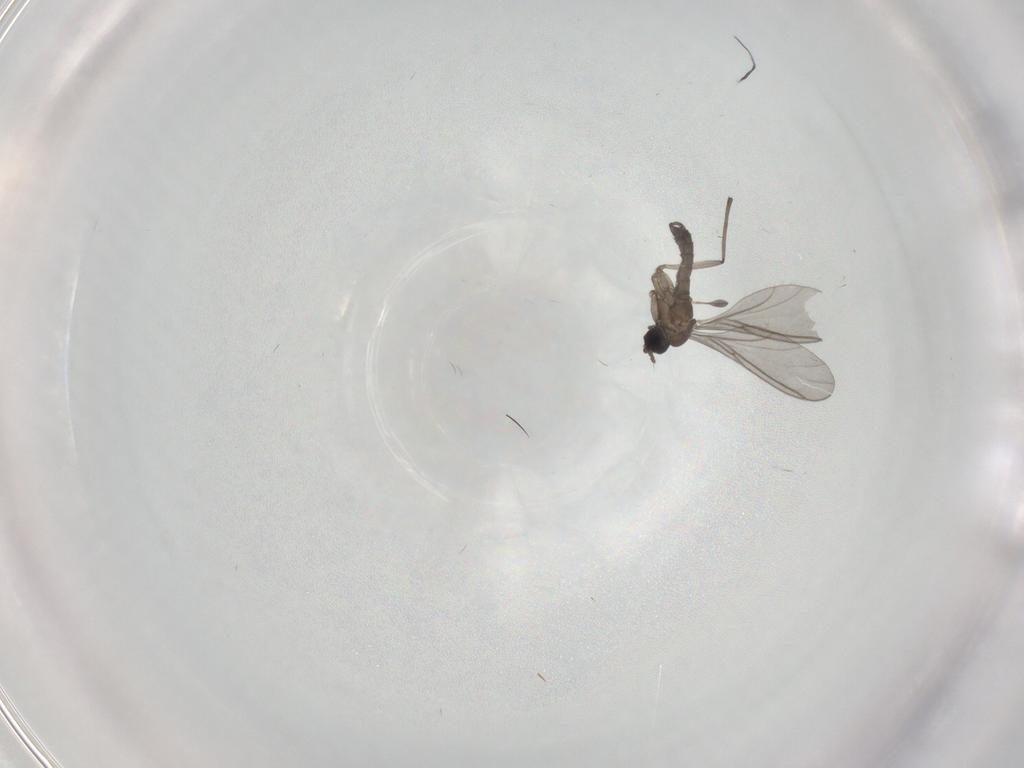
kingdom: Animalia
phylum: Arthropoda
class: Insecta
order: Diptera
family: Sciaridae
